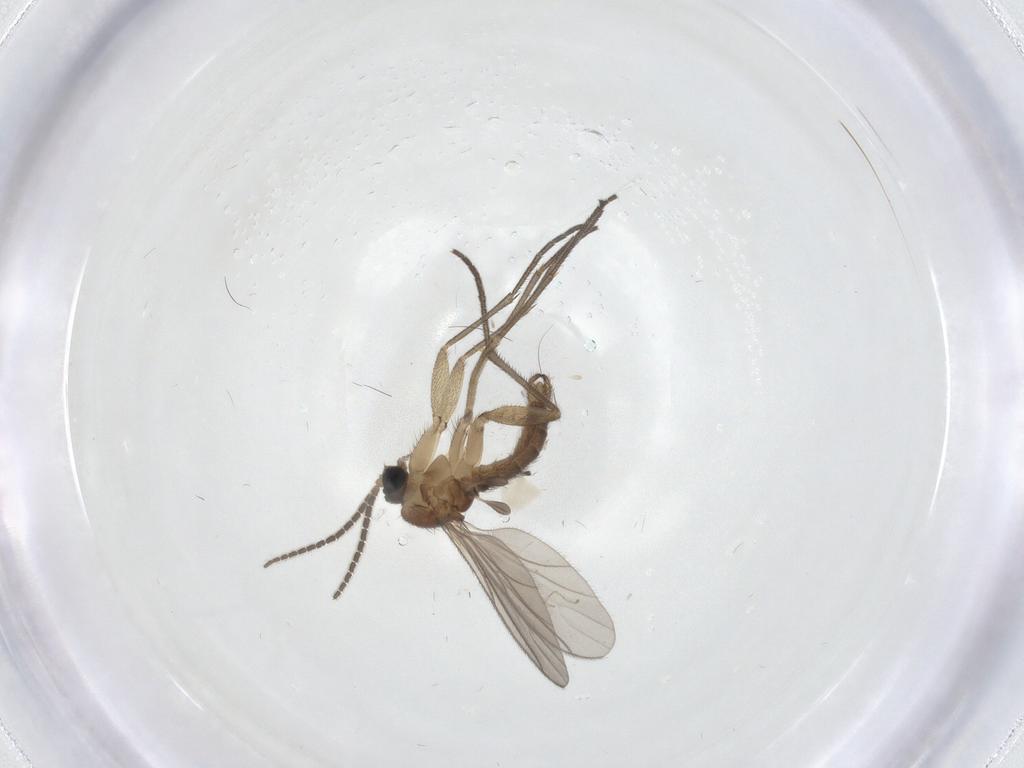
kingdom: Animalia
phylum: Arthropoda
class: Insecta
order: Diptera
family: Sciaridae
